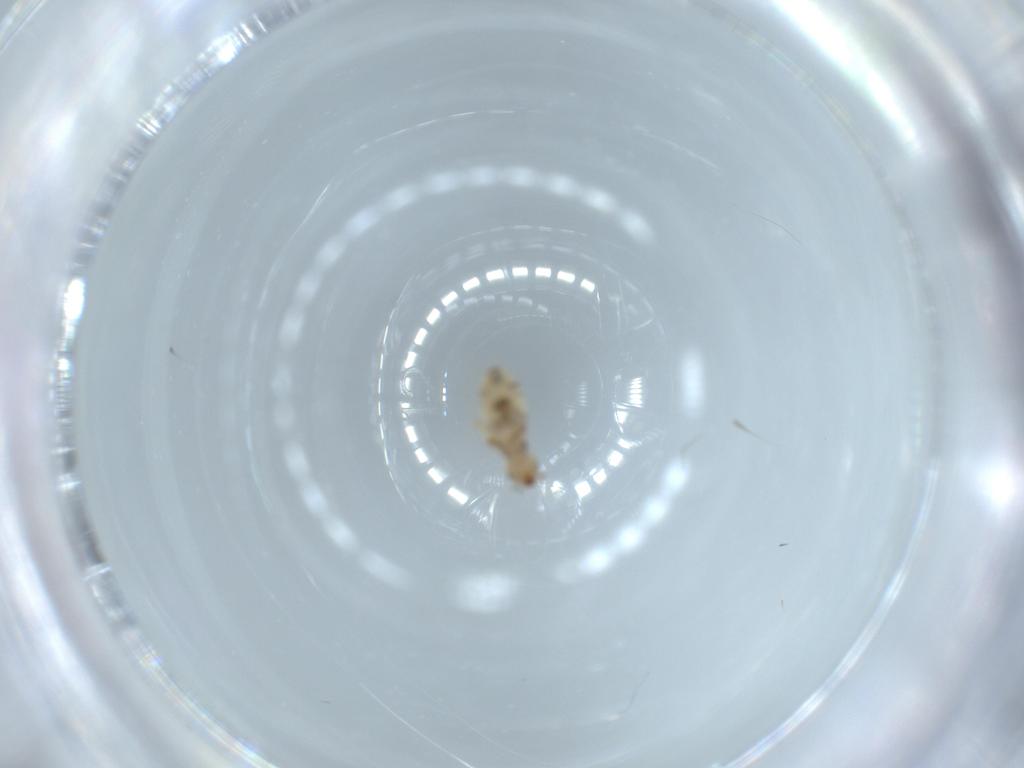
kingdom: Animalia
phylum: Arthropoda
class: Insecta
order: Psocodea
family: Liposcelididae
